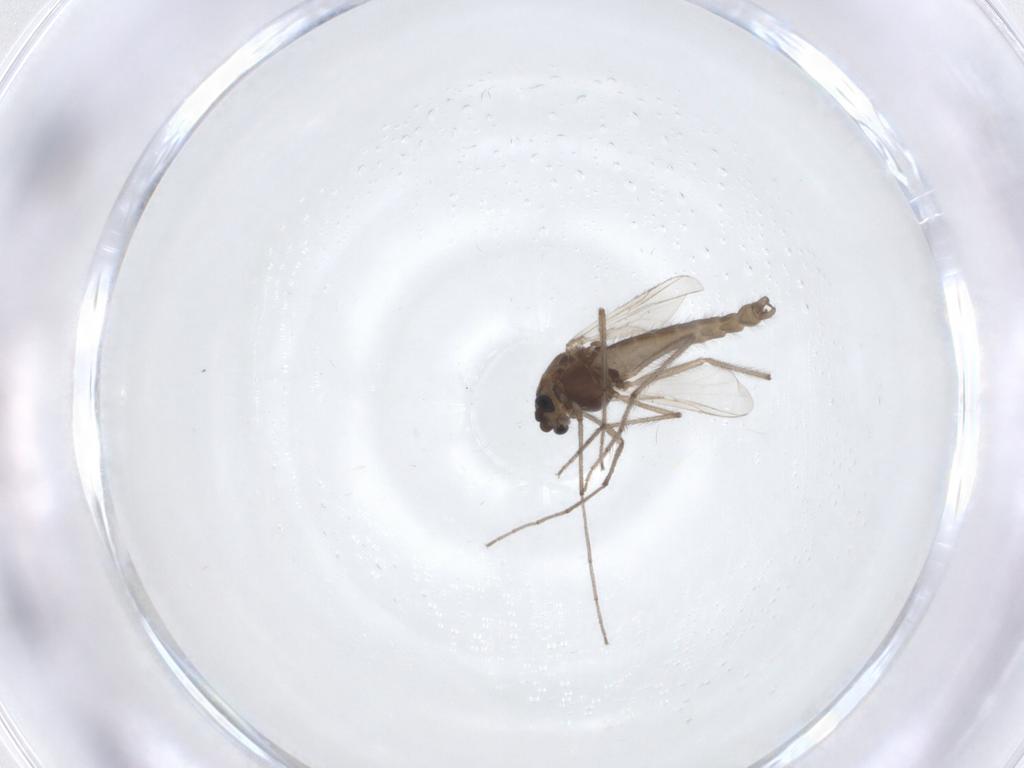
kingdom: Animalia
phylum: Arthropoda
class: Insecta
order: Diptera
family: Chironomidae
